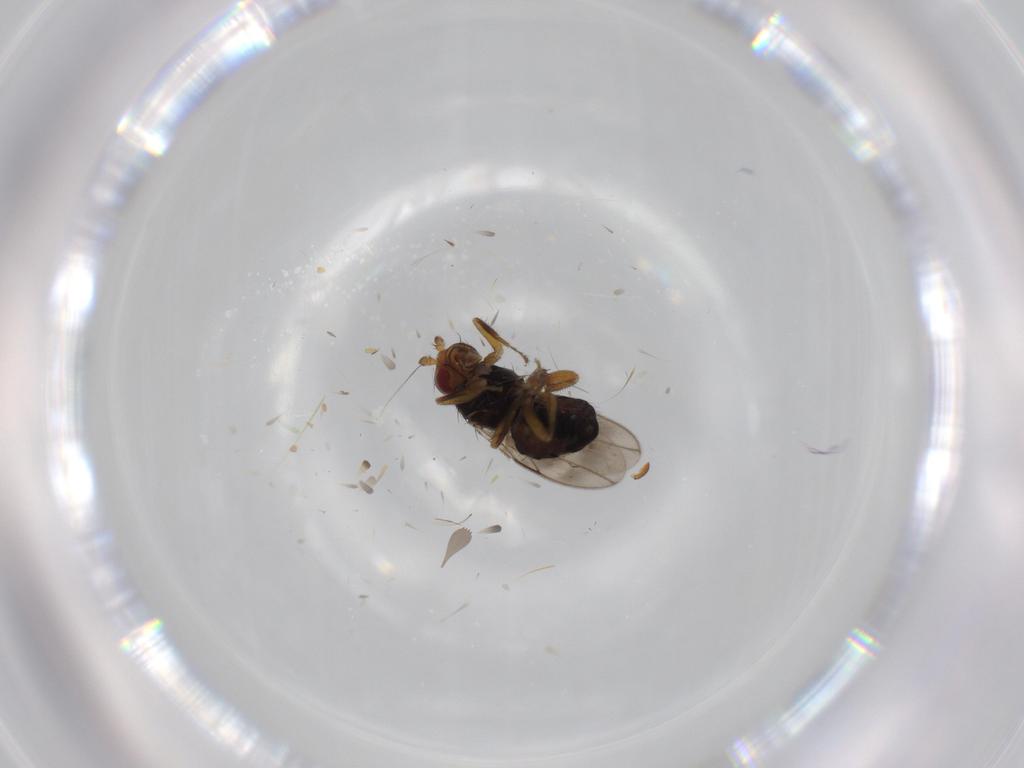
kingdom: Animalia
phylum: Arthropoda
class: Insecta
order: Diptera
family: Sphaeroceridae
